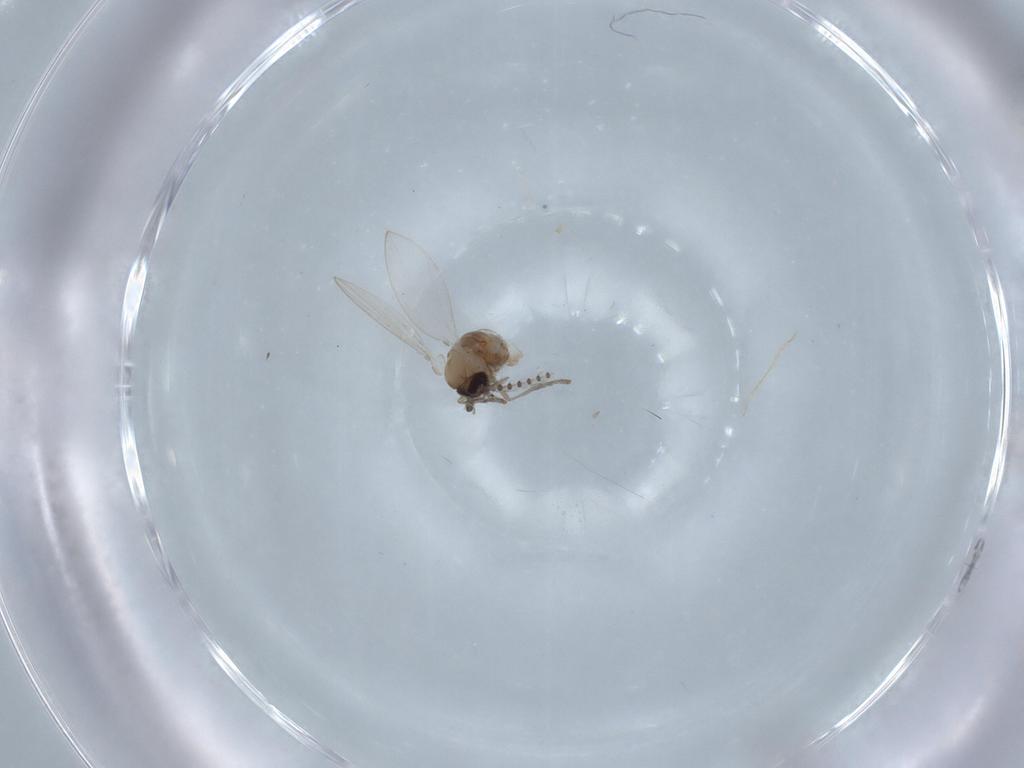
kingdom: Animalia
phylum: Arthropoda
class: Insecta
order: Diptera
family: Psychodidae
